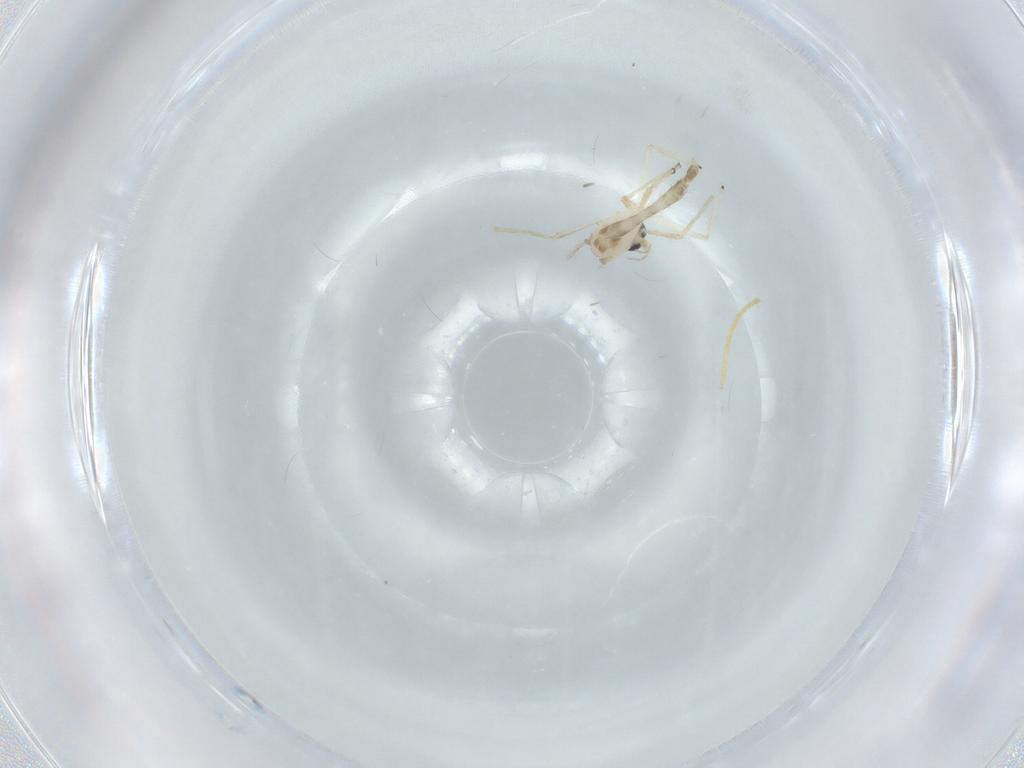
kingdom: Animalia
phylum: Arthropoda
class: Insecta
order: Diptera
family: Chironomidae
